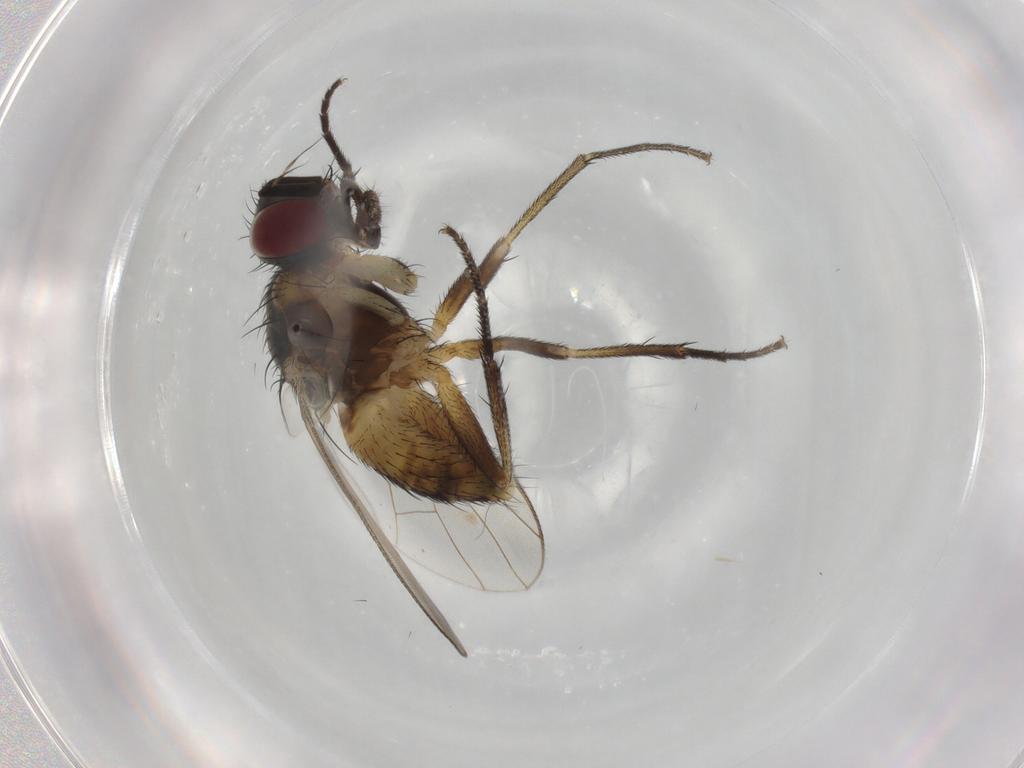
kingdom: Animalia
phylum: Arthropoda
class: Insecta
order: Diptera
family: Muscidae
